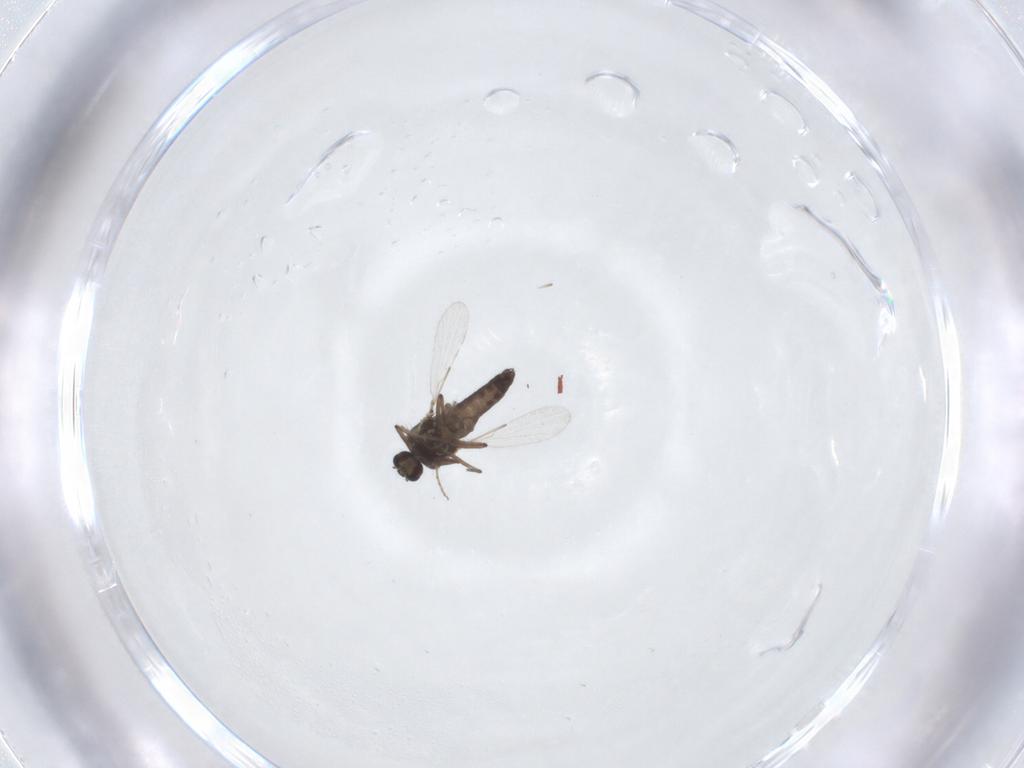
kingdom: Animalia
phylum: Arthropoda
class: Insecta
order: Diptera
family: Ceratopogonidae
